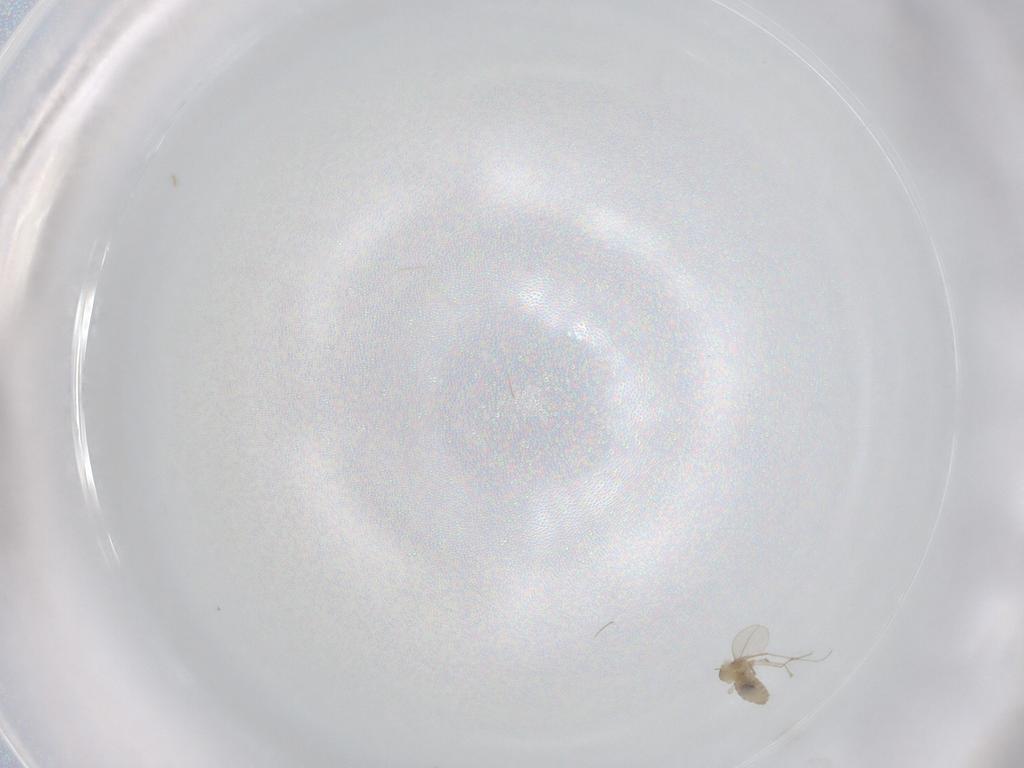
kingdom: Animalia
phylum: Arthropoda
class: Insecta
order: Diptera
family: Cecidomyiidae
